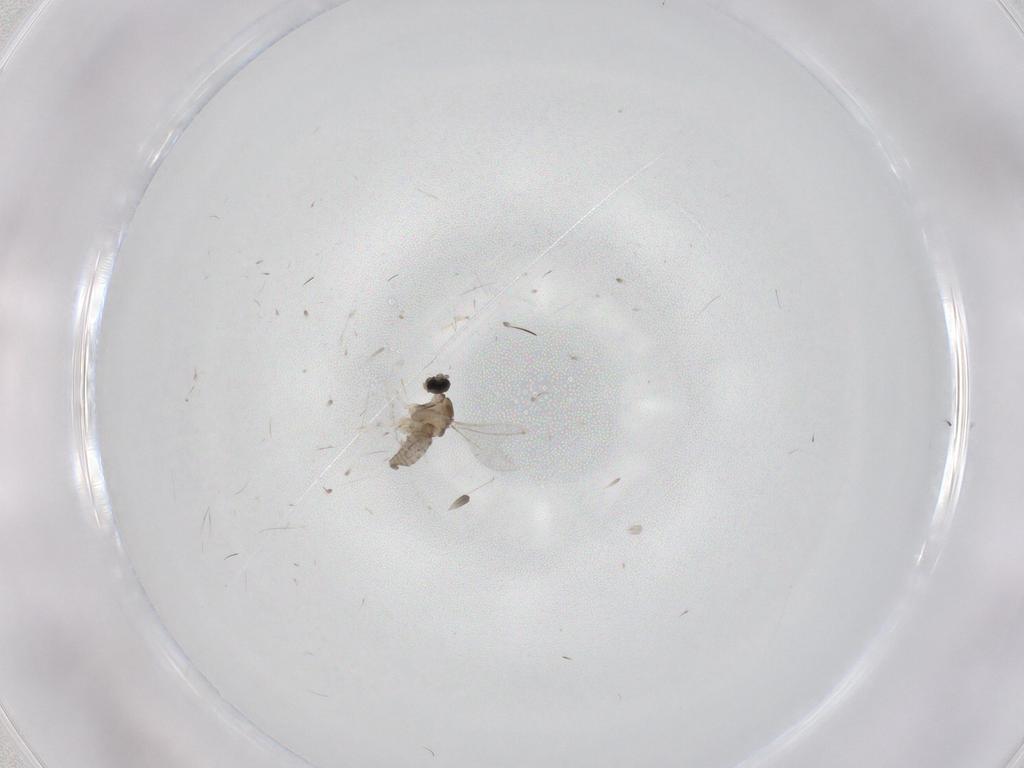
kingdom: Animalia
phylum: Arthropoda
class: Insecta
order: Diptera
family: Cecidomyiidae
